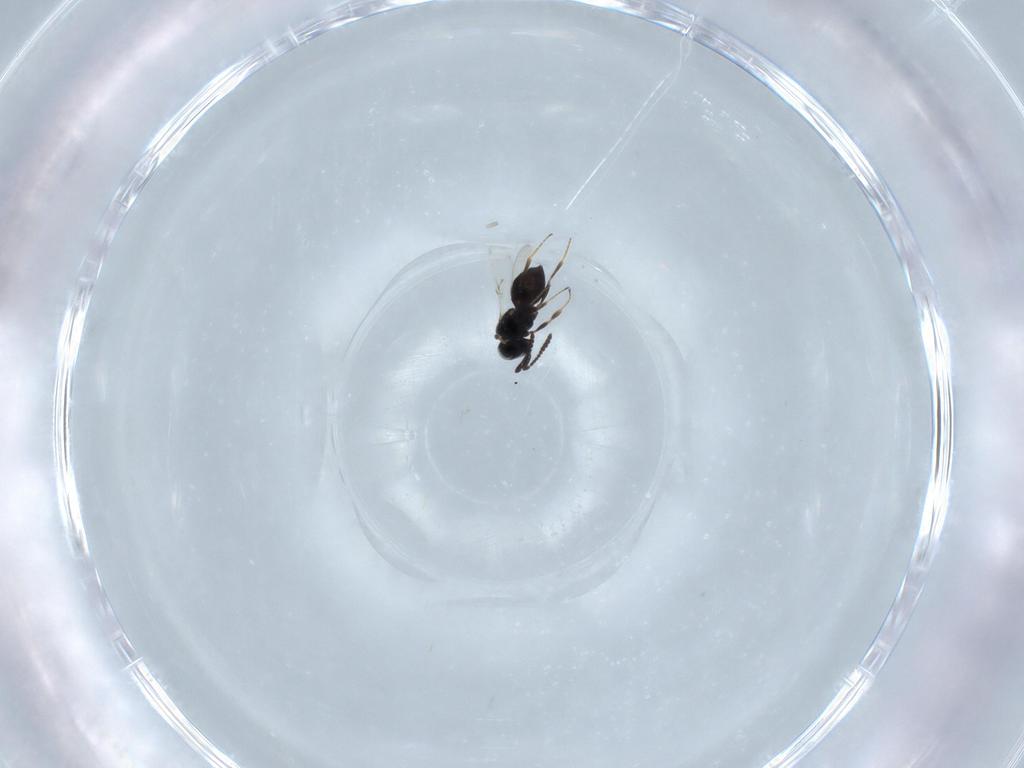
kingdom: Animalia
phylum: Arthropoda
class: Insecta
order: Hymenoptera
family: Scelionidae
